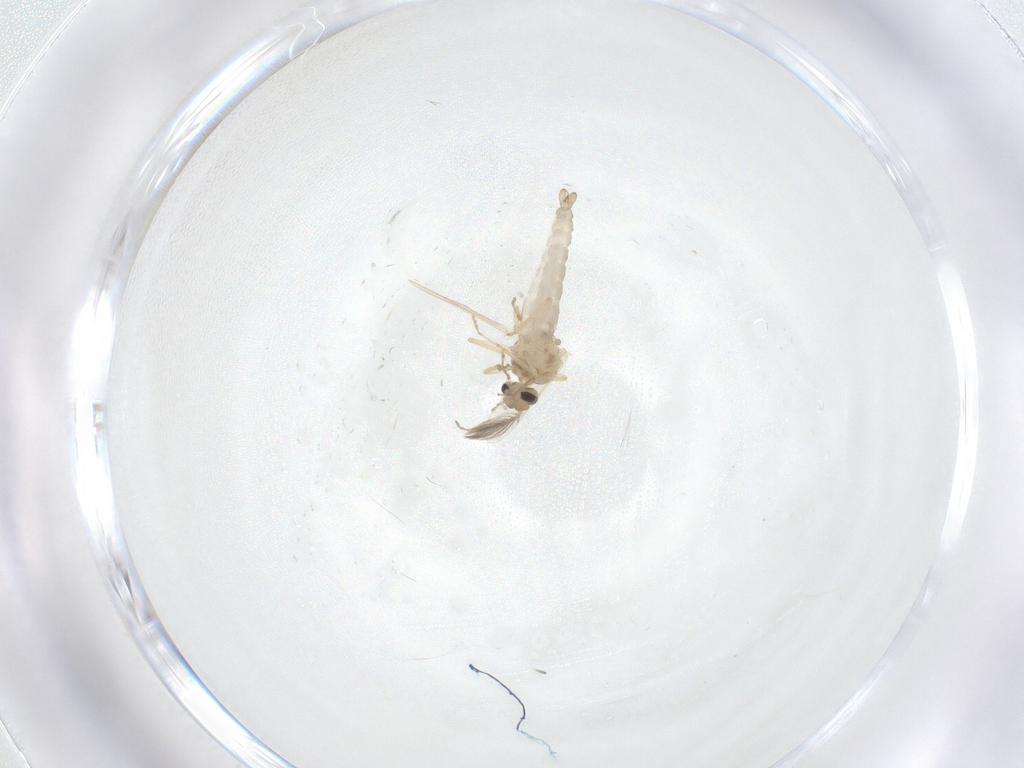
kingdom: Animalia
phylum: Arthropoda
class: Insecta
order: Diptera
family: Ceratopogonidae
